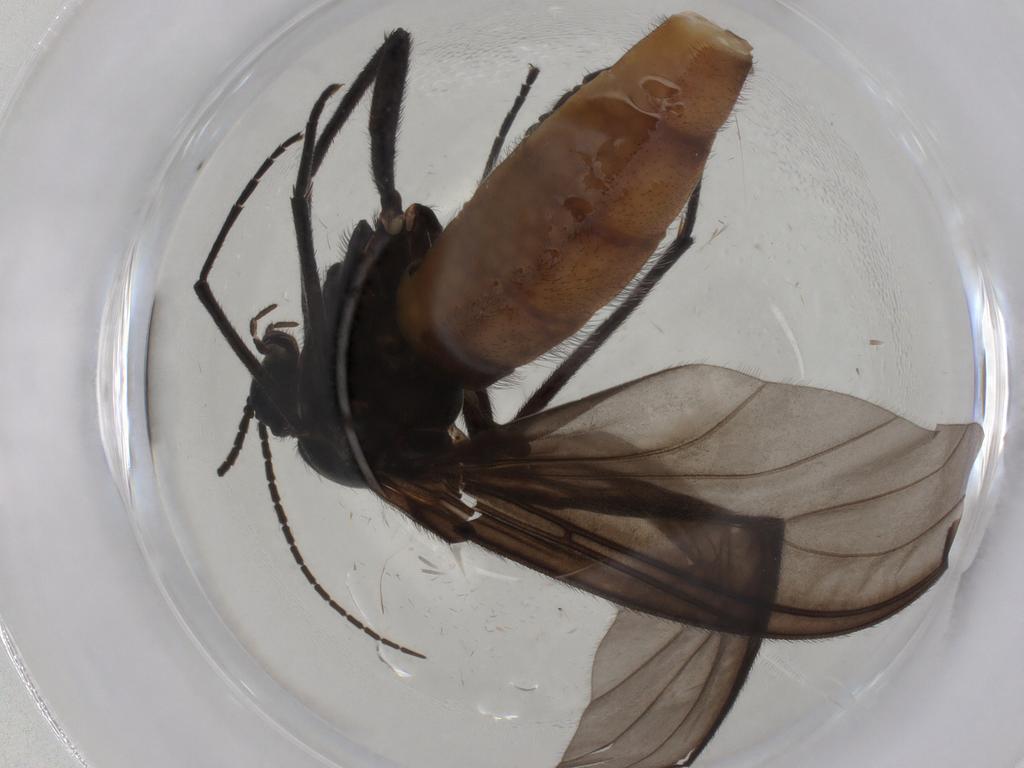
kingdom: Animalia
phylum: Arthropoda
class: Insecta
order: Diptera
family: Cecidomyiidae
